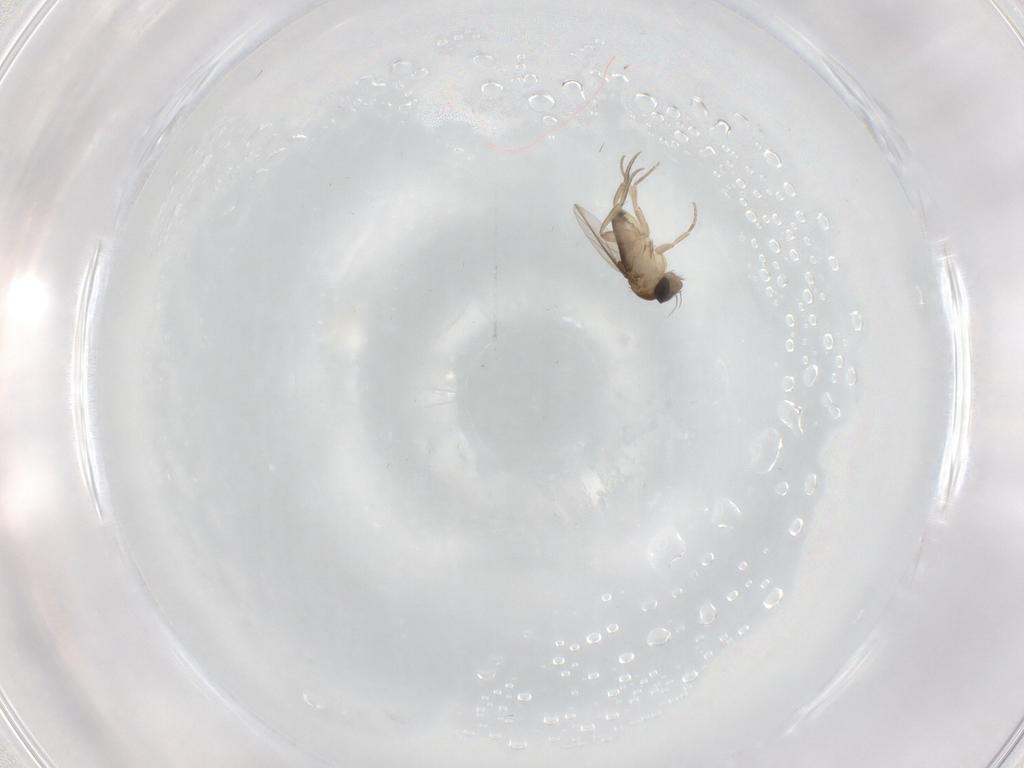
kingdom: Animalia
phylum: Arthropoda
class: Insecta
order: Diptera
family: Phoridae
